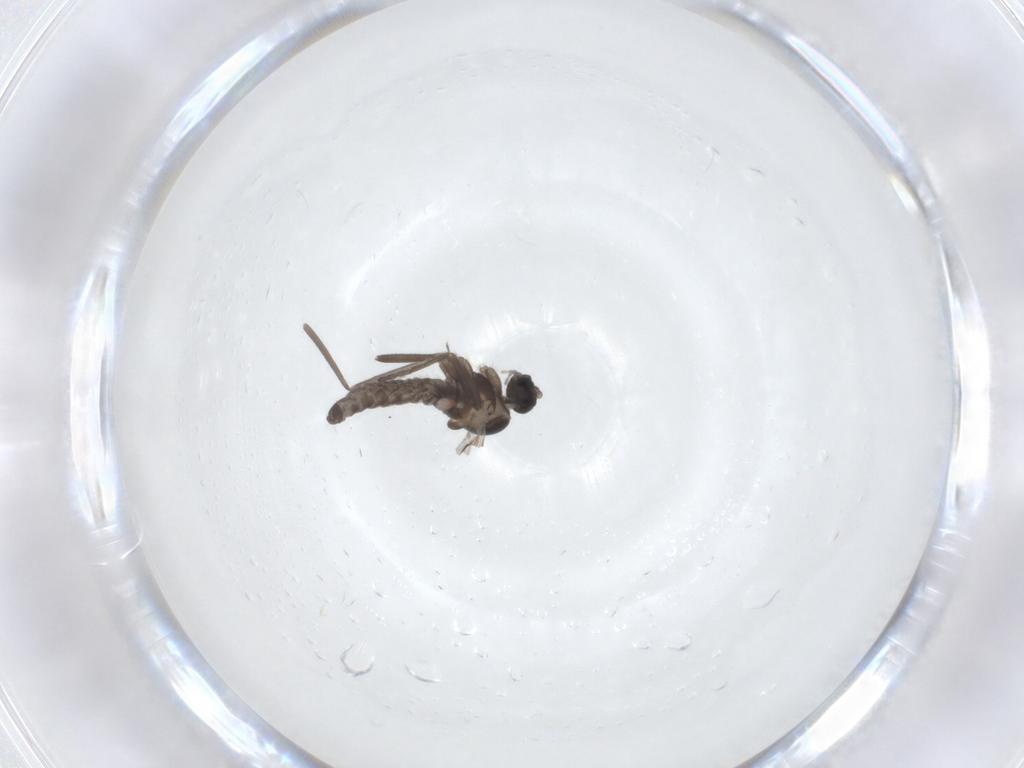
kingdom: Animalia
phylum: Arthropoda
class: Insecta
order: Diptera
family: Cecidomyiidae
